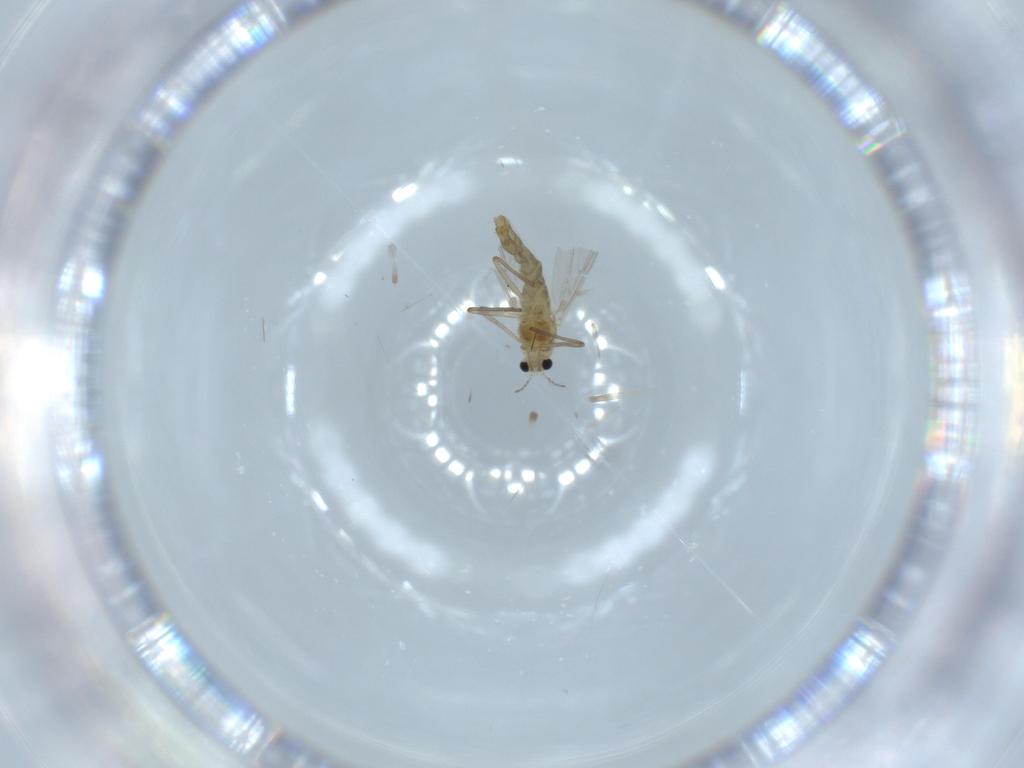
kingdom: Animalia
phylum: Arthropoda
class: Insecta
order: Diptera
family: Chironomidae
